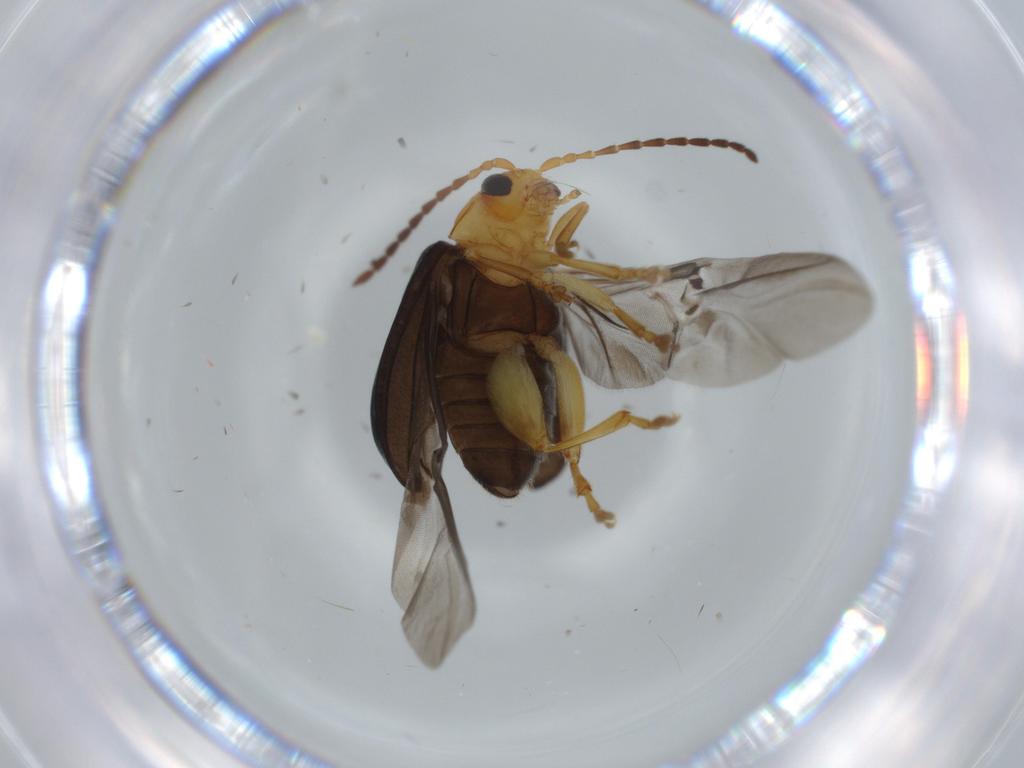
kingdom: Animalia
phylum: Arthropoda
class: Insecta
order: Coleoptera
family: Chrysomelidae
